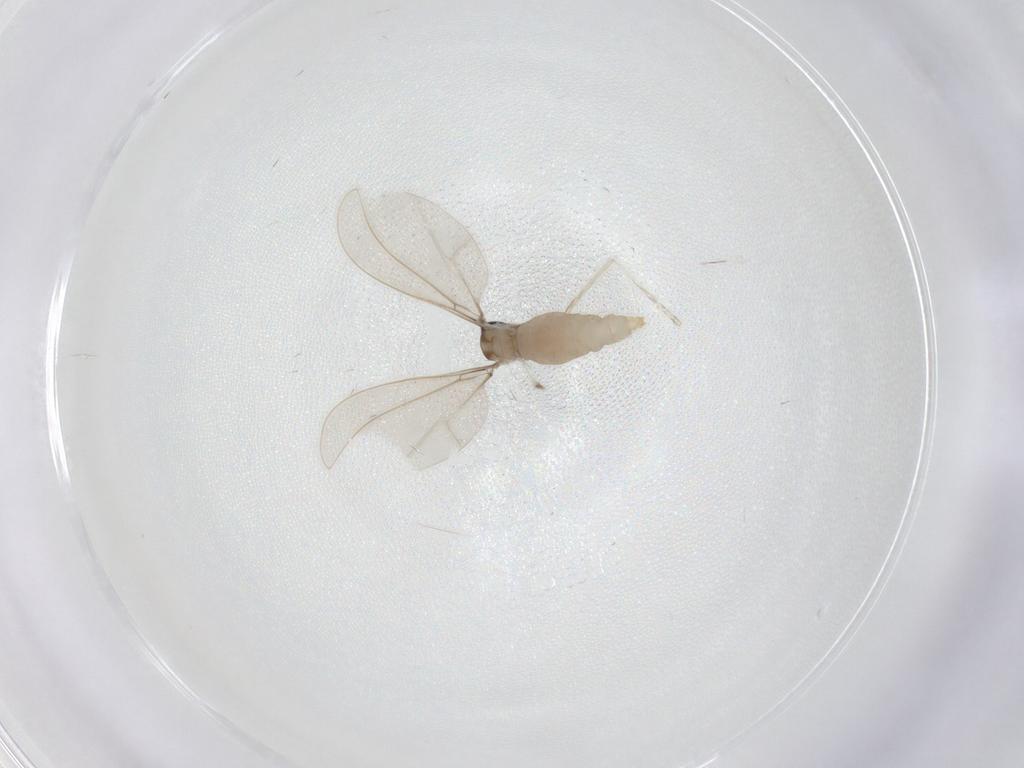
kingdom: Animalia
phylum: Arthropoda
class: Insecta
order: Diptera
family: Cecidomyiidae
